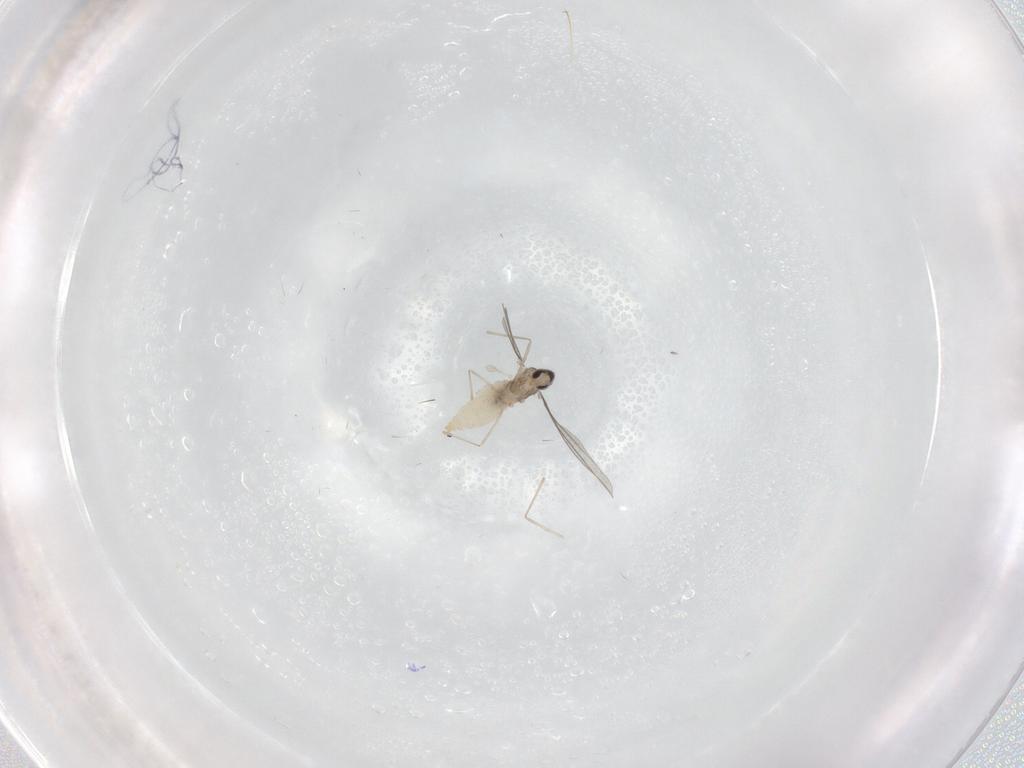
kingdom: Animalia
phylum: Arthropoda
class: Insecta
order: Diptera
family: Cecidomyiidae
